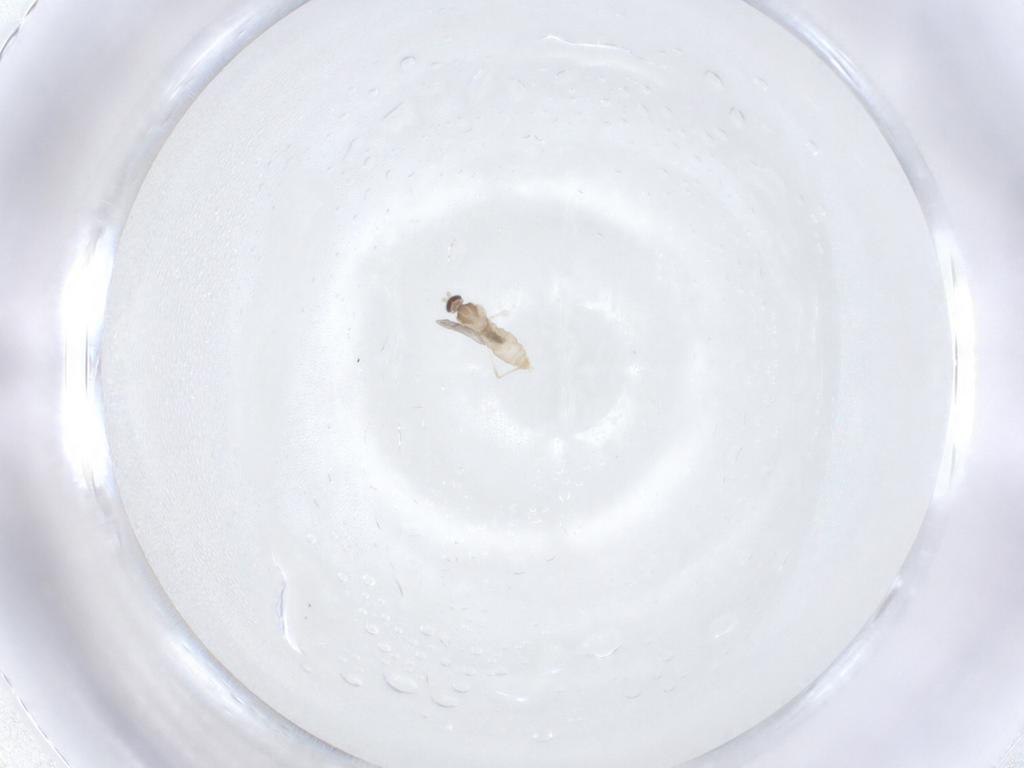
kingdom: Animalia
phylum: Arthropoda
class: Insecta
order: Diptera
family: Cecidomyiidae
